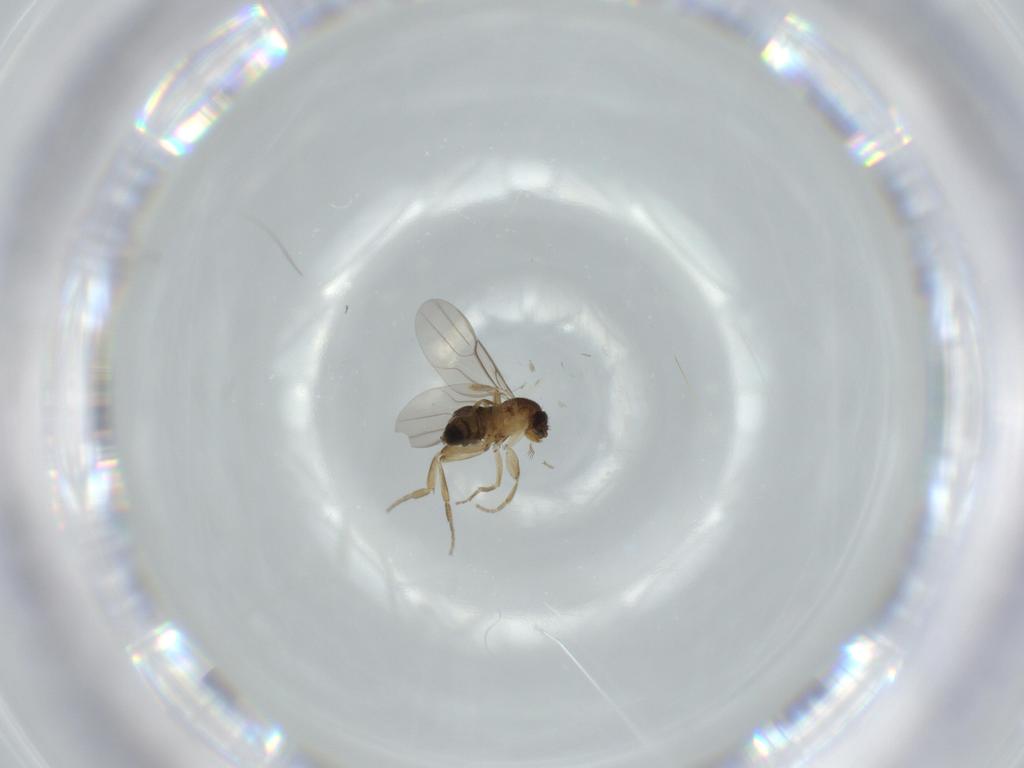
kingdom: Animalia
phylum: Arthropoda
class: Insecta
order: Diptera
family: Phoridae
